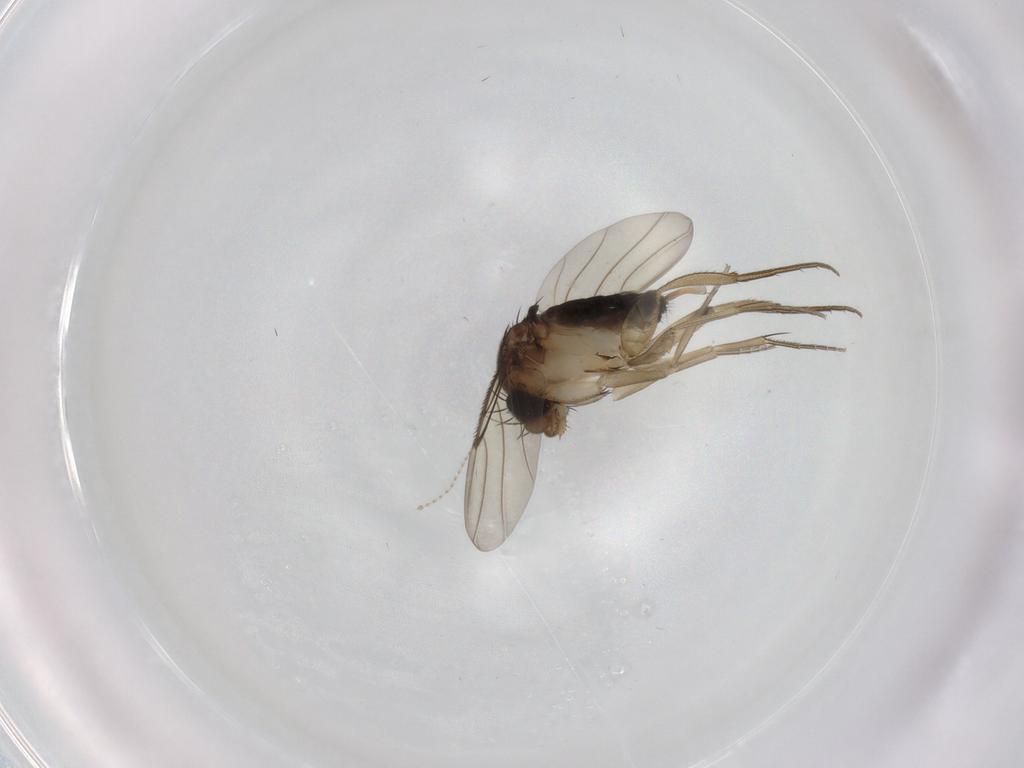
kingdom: Animalia
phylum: Arthropoda
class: Insecta
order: Diptera
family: Phoridae
